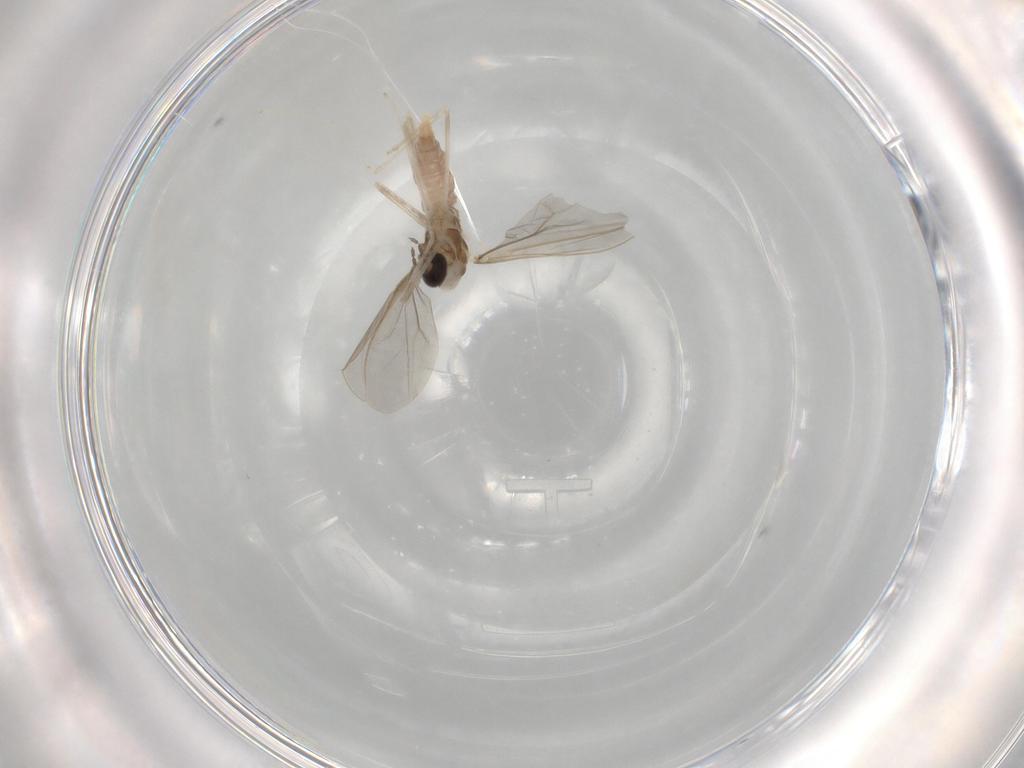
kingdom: Animalia
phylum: Arthropoda
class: Insecta
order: Diptera
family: Cecidomyiidae
